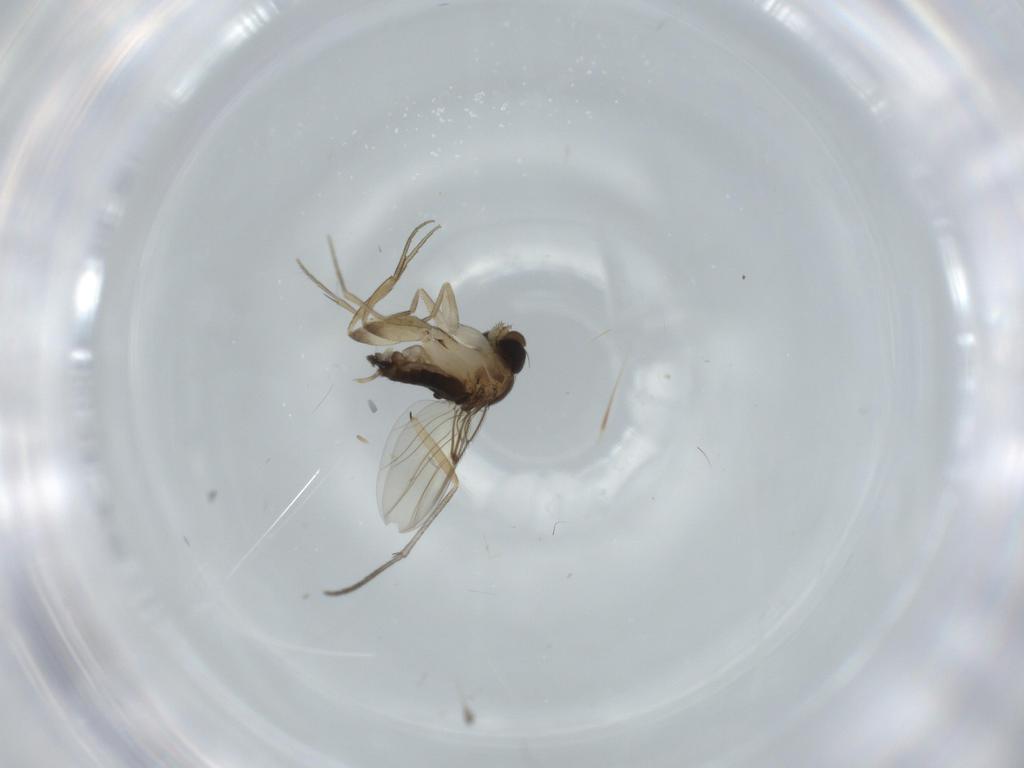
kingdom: Animalia
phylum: Arthropoda
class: Insecta
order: Diptera
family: Sciaridae
